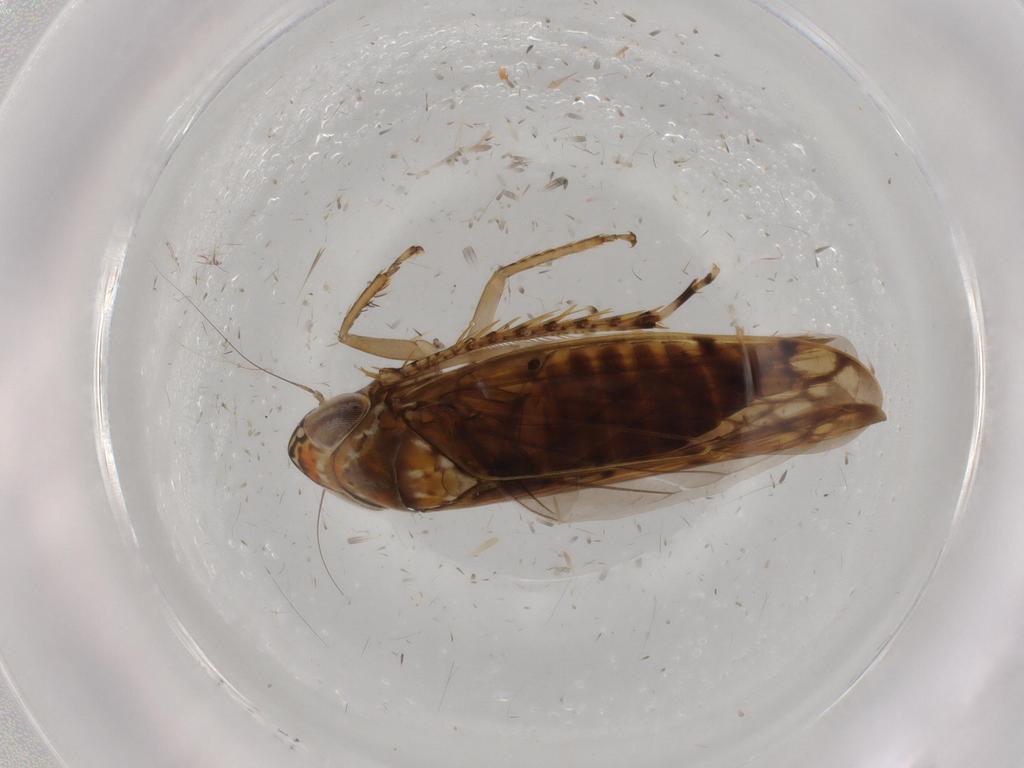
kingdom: Animalia
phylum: Arthropoda
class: Insecta
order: Hemiptera
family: Cicadellidae
